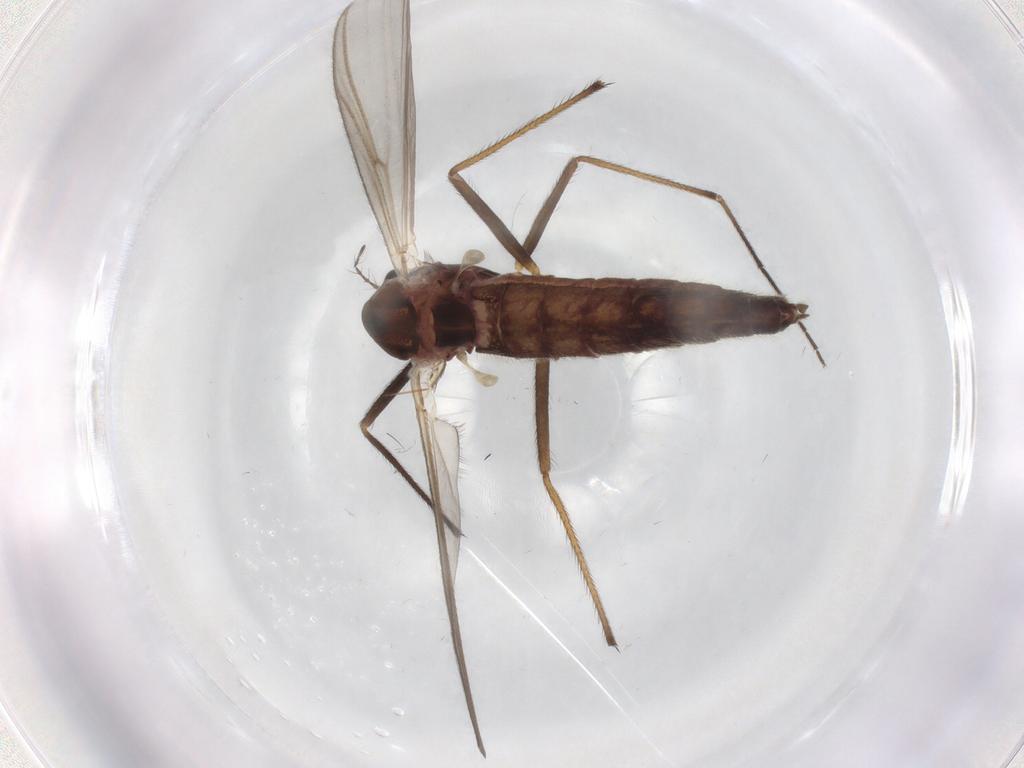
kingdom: Animalia
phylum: Arthropoda
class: Insecta
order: Diptera
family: Chironomidae
